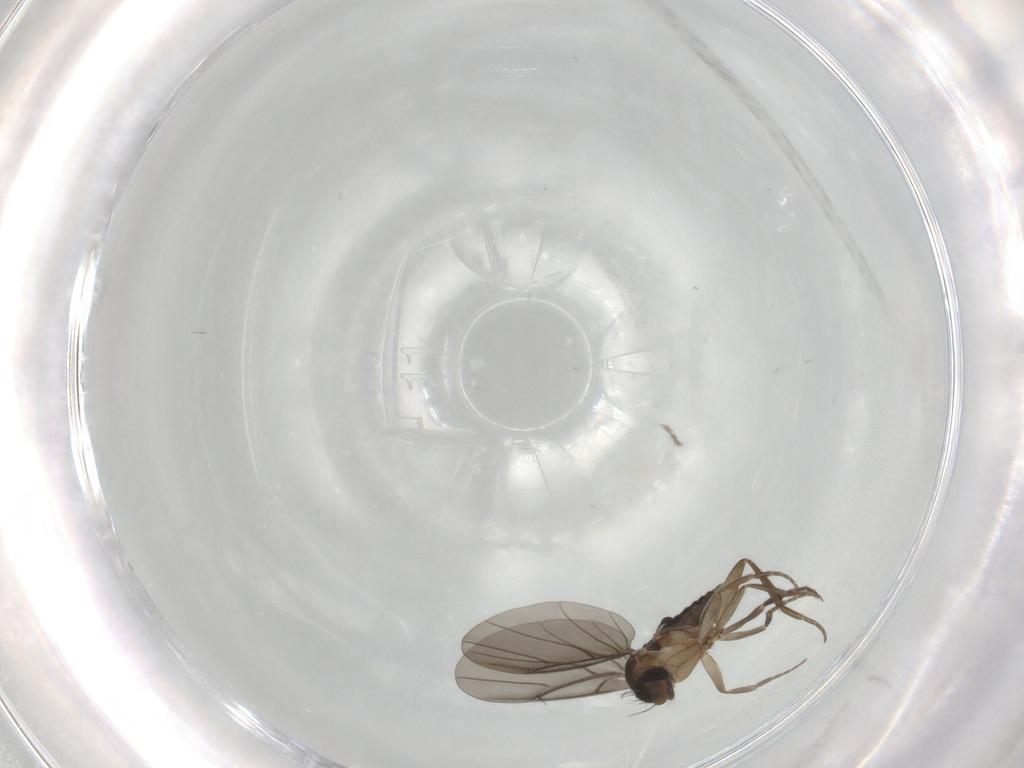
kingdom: Animalia
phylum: Arthropoda
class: Insecta
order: Diptera
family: Phoridae
